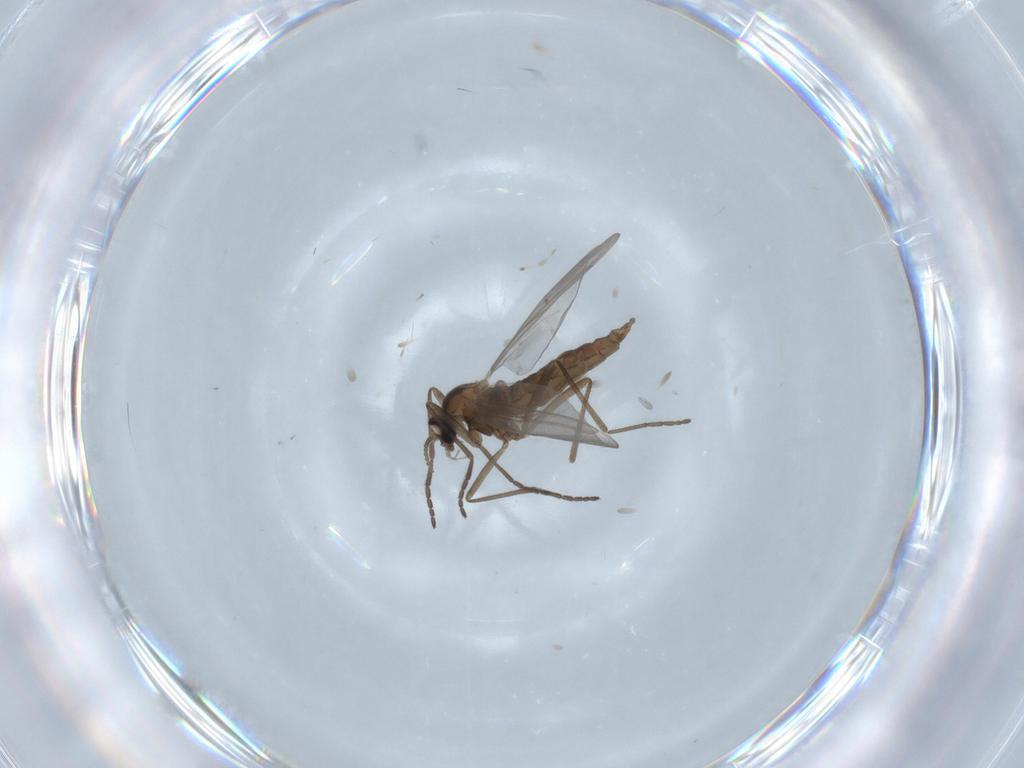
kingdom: Animalia
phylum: Arthropoda
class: Insecta
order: Diptera
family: Cecidomyiidae
